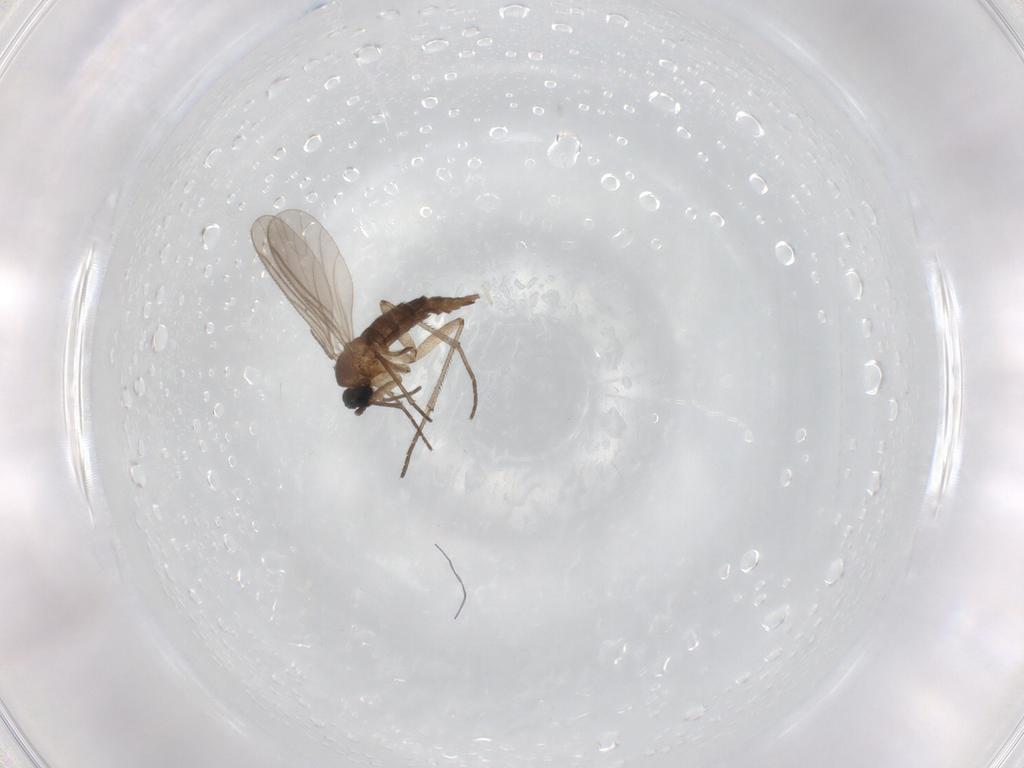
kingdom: Animalia
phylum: Arthropoda
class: Insecta
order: Diptera
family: Sciaridae
